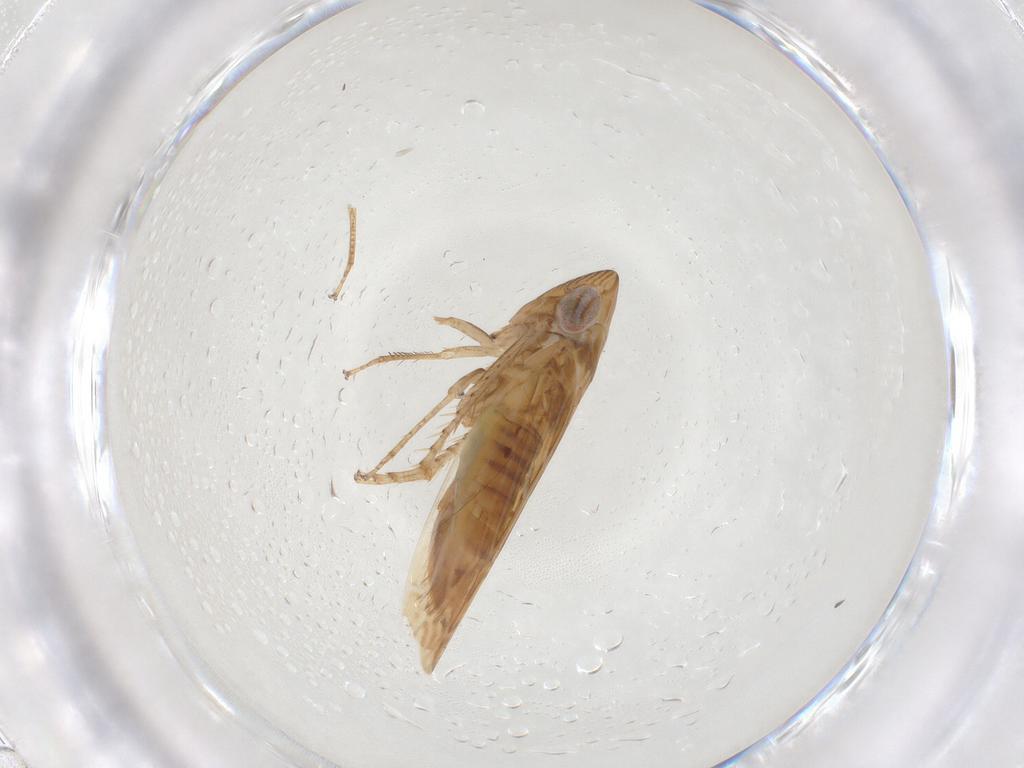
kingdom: Animalia
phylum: Arthropoda
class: Insecta
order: Hemiptera
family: Cicadellidae
